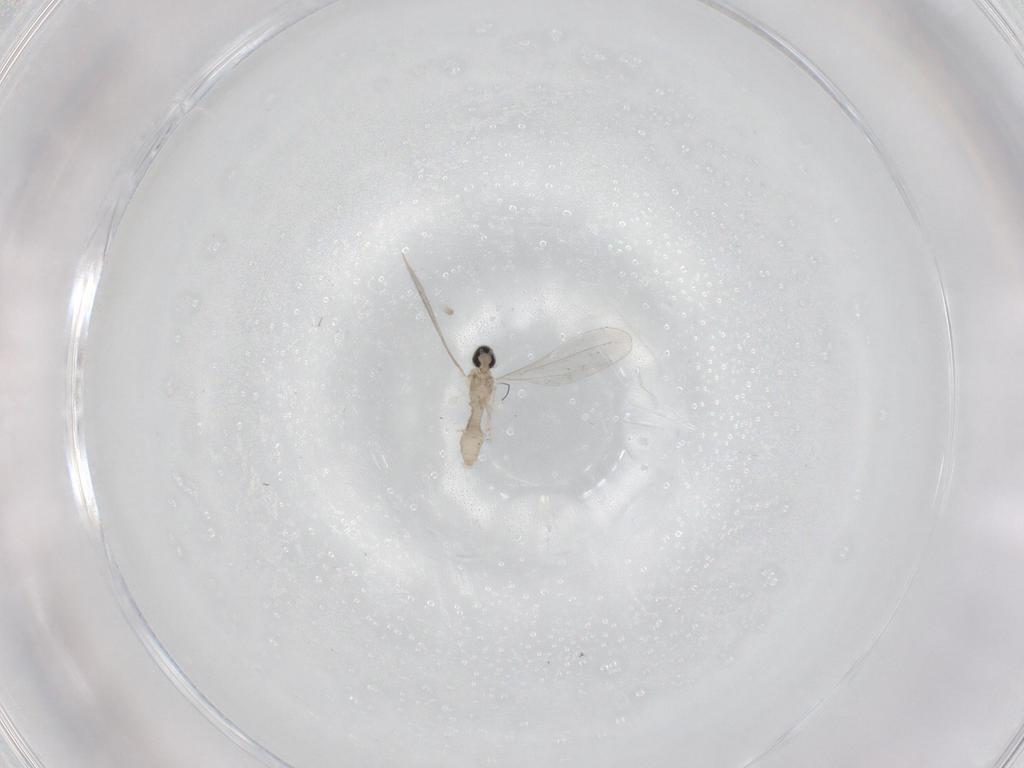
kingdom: Animalia
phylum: Arthropoda
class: Insecta
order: Diptera
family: Cecidomyiidae
